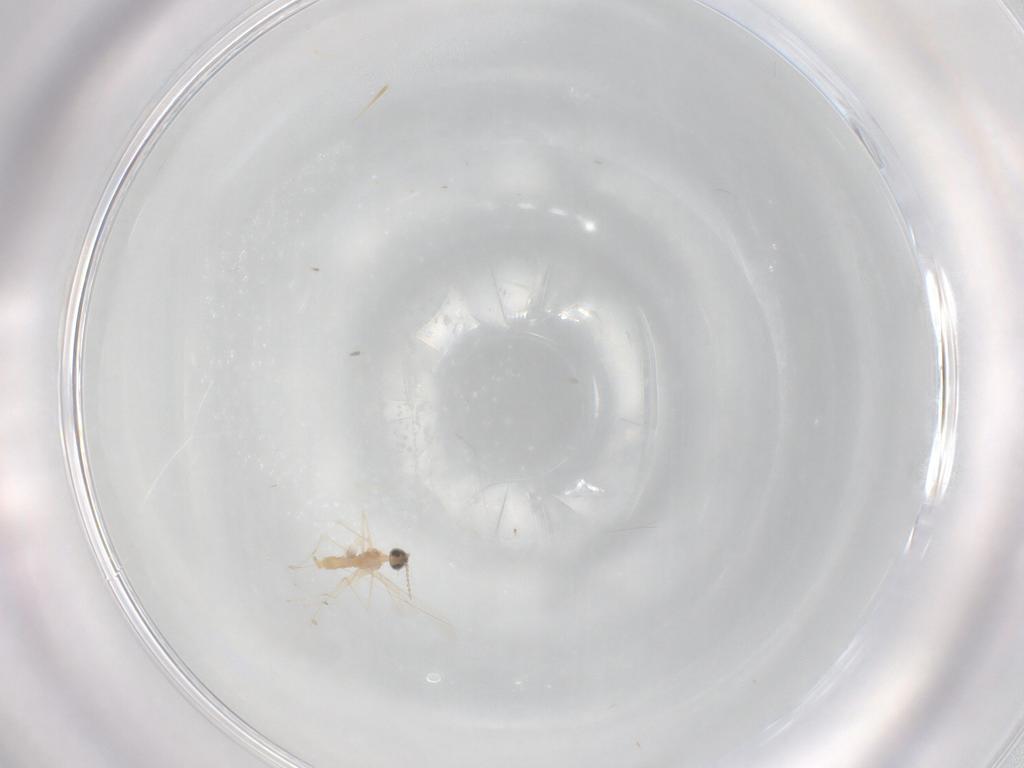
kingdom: Animalia
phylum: Arthropoda
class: Insecta
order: Diptera
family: Cecidomyiidae
